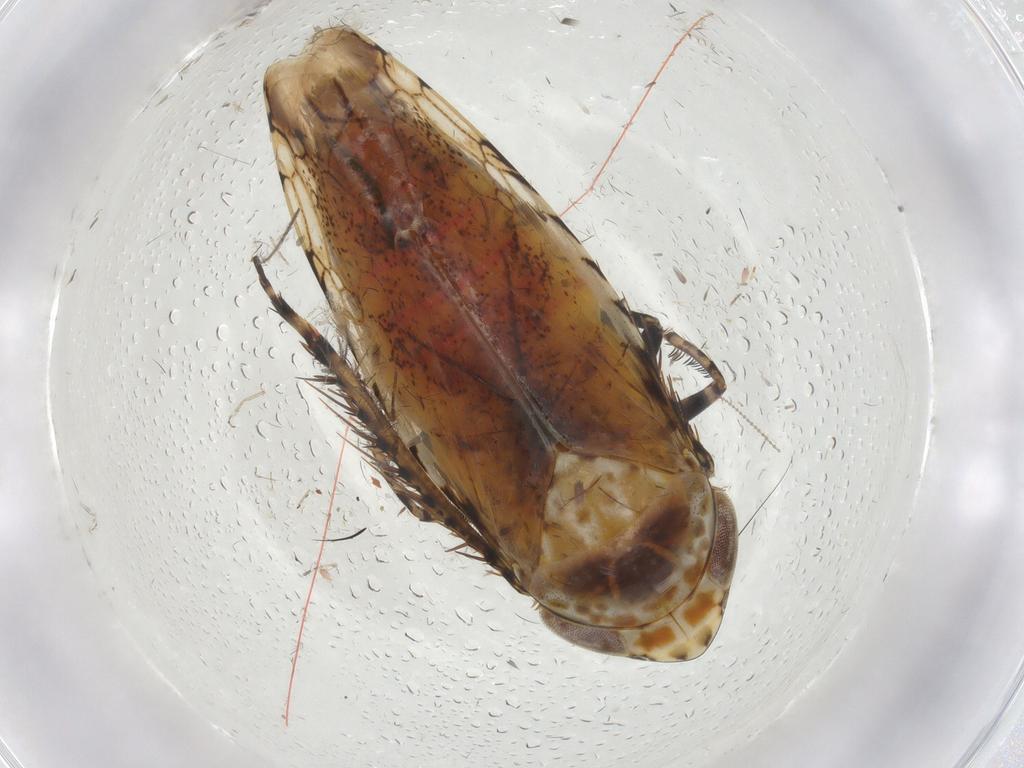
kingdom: Animalia
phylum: Arthropoda
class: Insecta
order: Hemiptera
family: Cicadellidae
